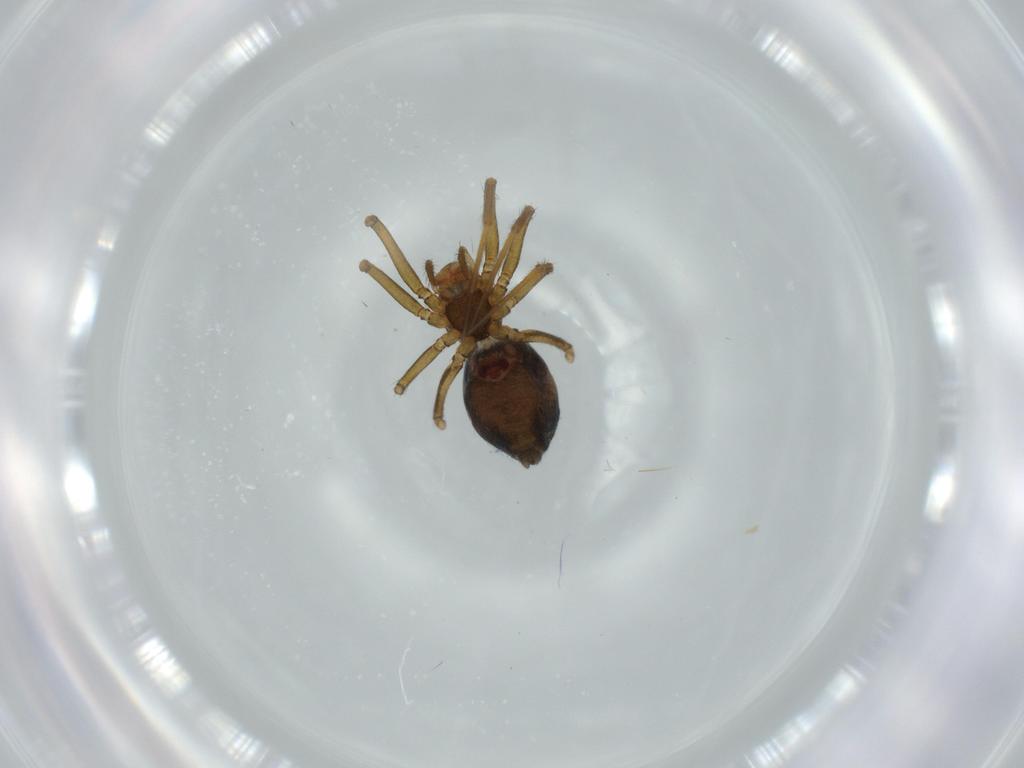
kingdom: Animalia
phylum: Arthropoda
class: Arachnida
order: Araneae
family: Linyphiidae
